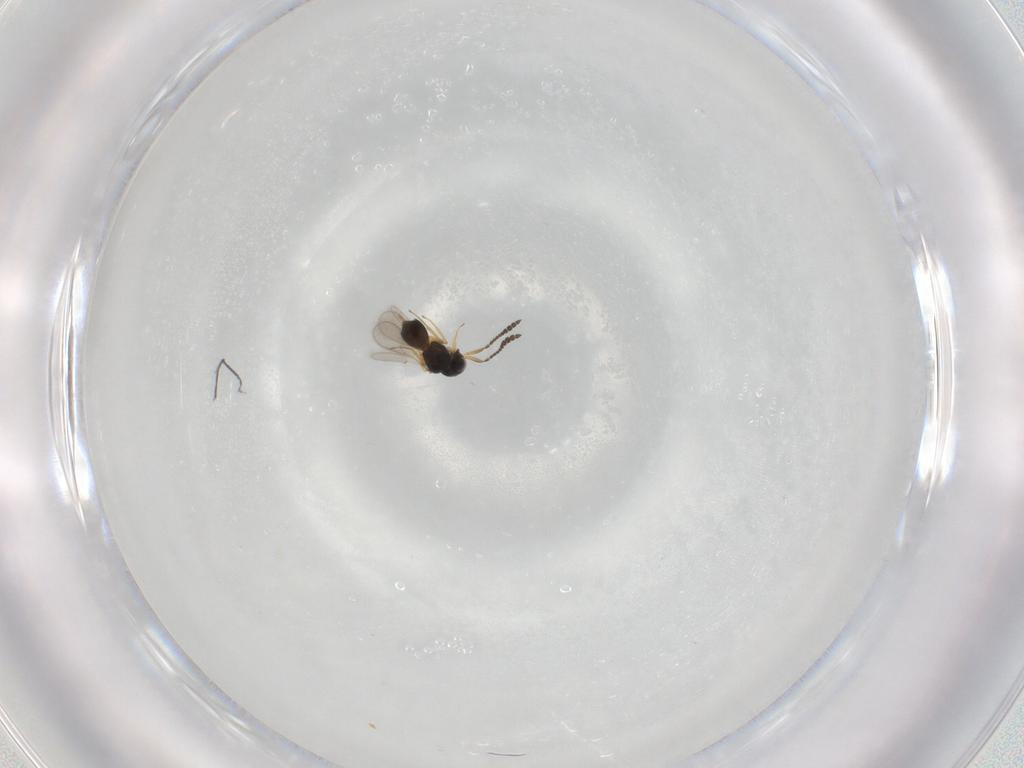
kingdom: Animalia
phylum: Arthropoda
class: Insecta
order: Hymenoptera
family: Scelionidae
